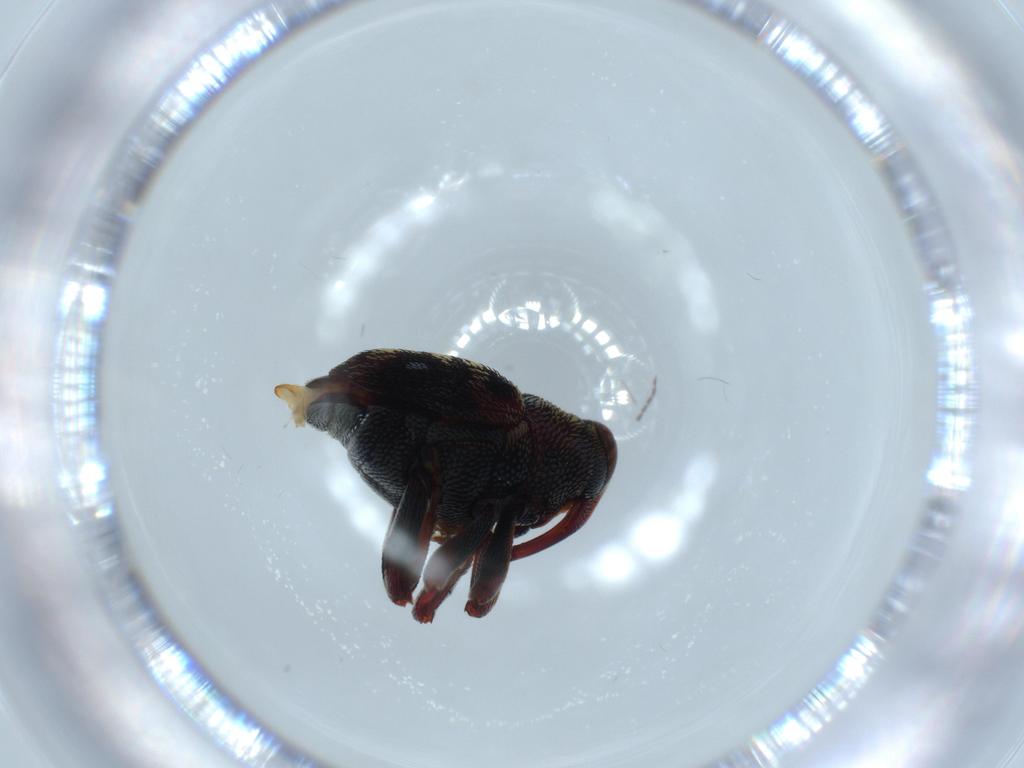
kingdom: Animalia
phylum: Arthropoda
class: Insecta
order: Coleoptera
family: Curculionidae
